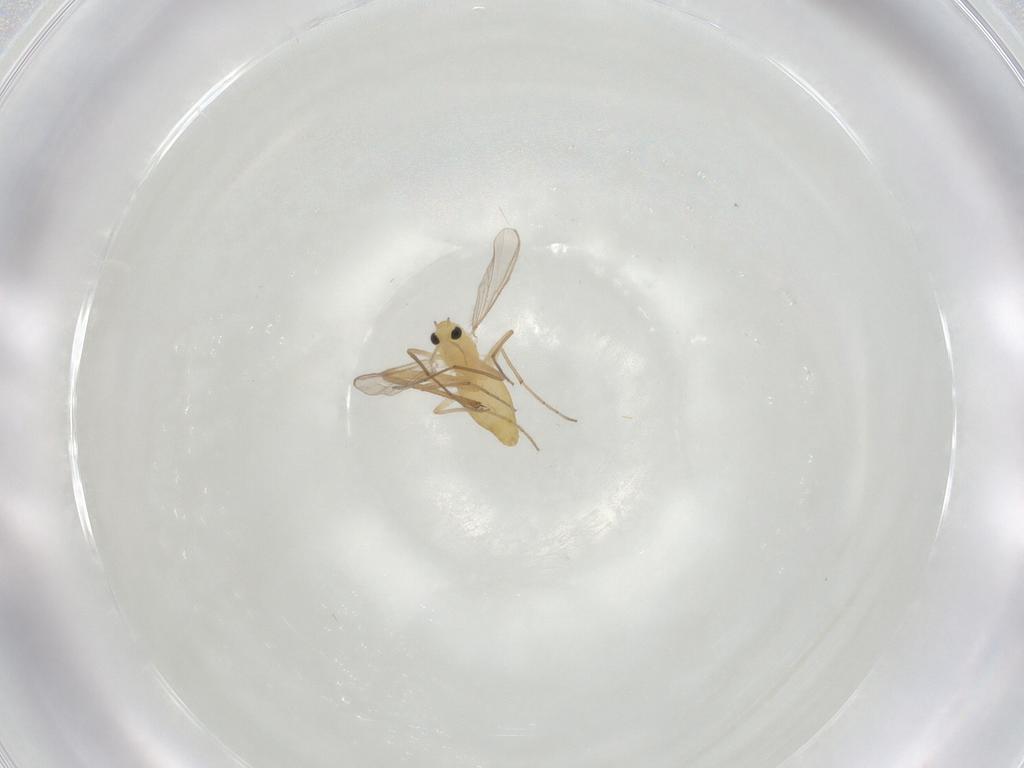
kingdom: Animalia
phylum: Arthropoda
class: Insecta
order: Diptera
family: Chironomidae
